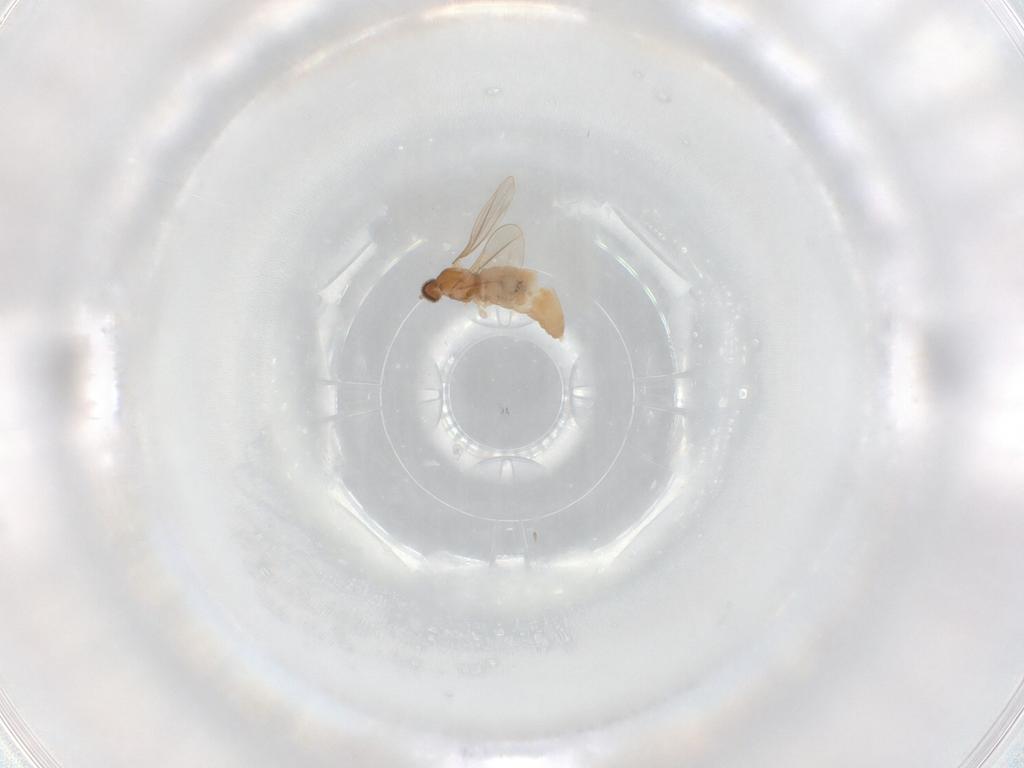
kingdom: Animalia
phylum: Arthropoda
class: Insecta
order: Diptera
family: Cecidomyiidae
